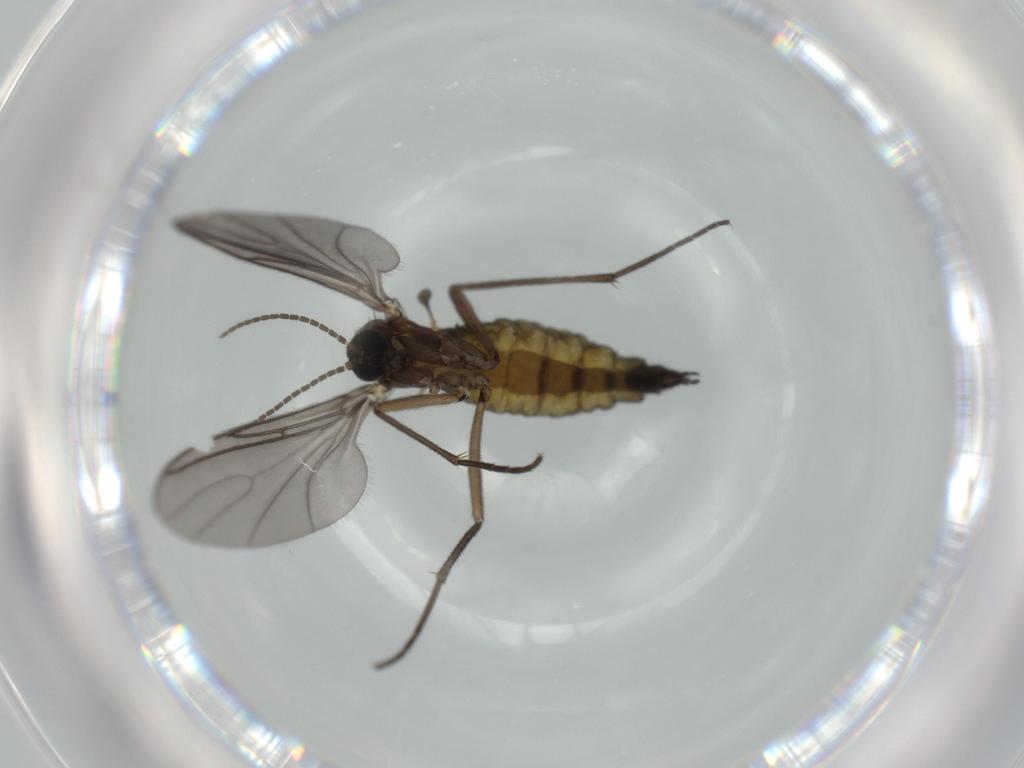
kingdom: Animalia
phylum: Arthropoda
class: Insecta
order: Diptera
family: Sciaridae
